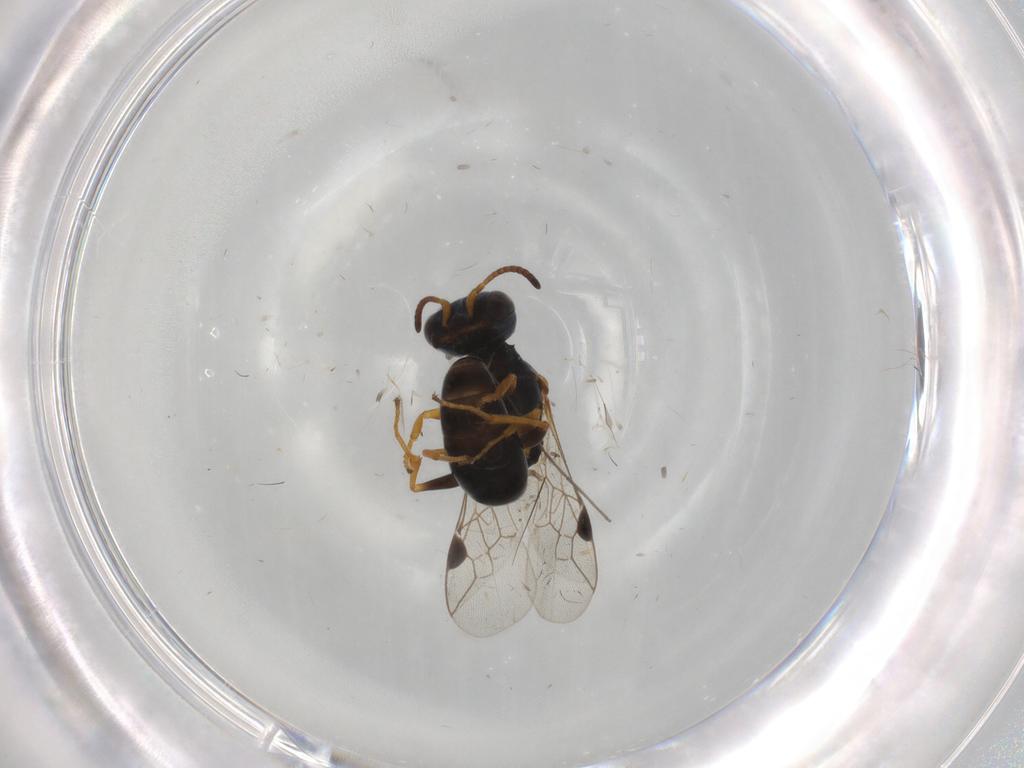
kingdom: Animalia
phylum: Arthropoda
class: Insecta
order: Hymenoptera
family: Pemphredonidae
